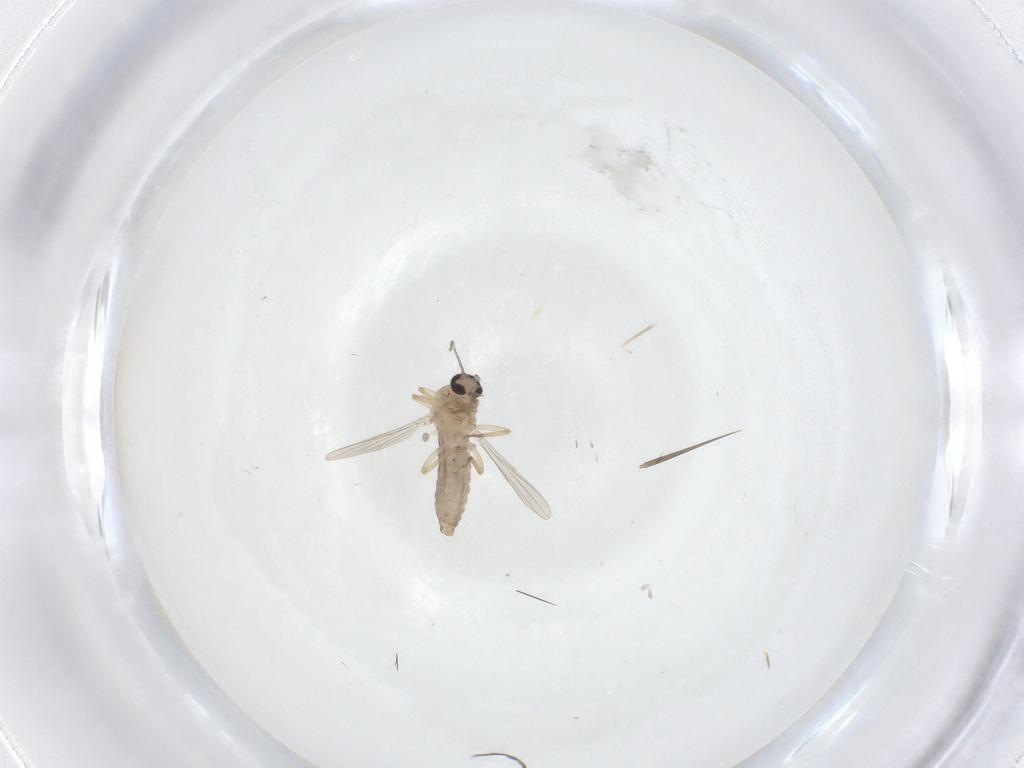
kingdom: Animalia
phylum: Arthropoda
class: Insecta
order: Diptera
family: Ceratopogonidae
